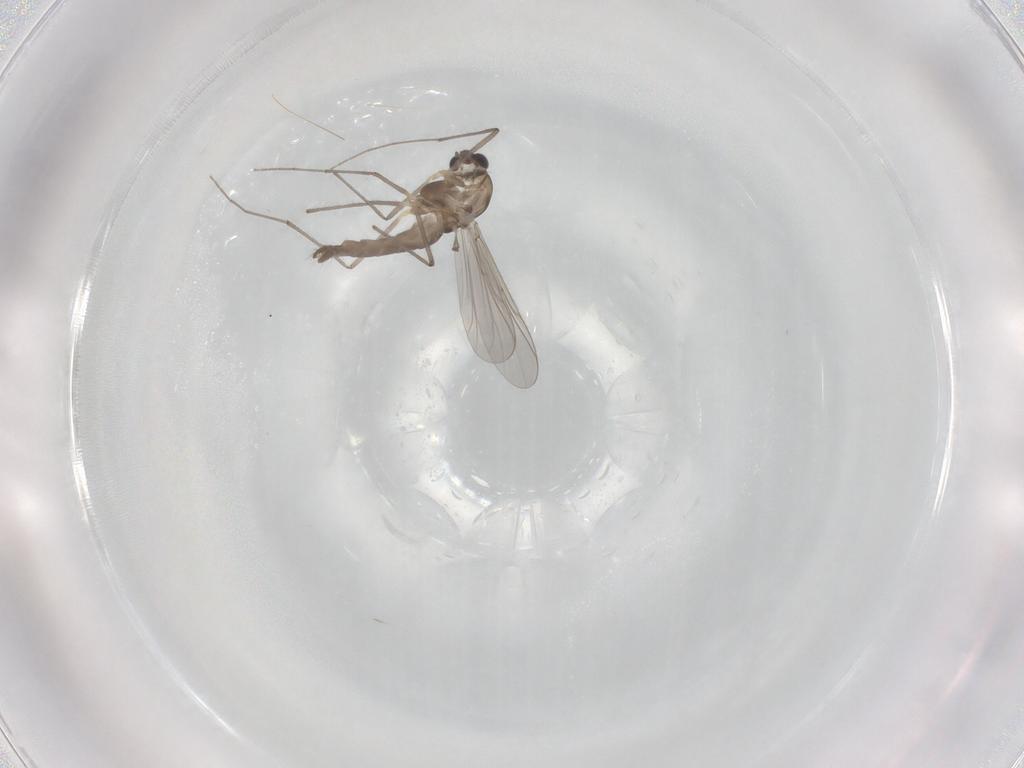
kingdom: Animalia
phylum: Arthropoda
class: Insecta
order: Diptera
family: Chironomidae
